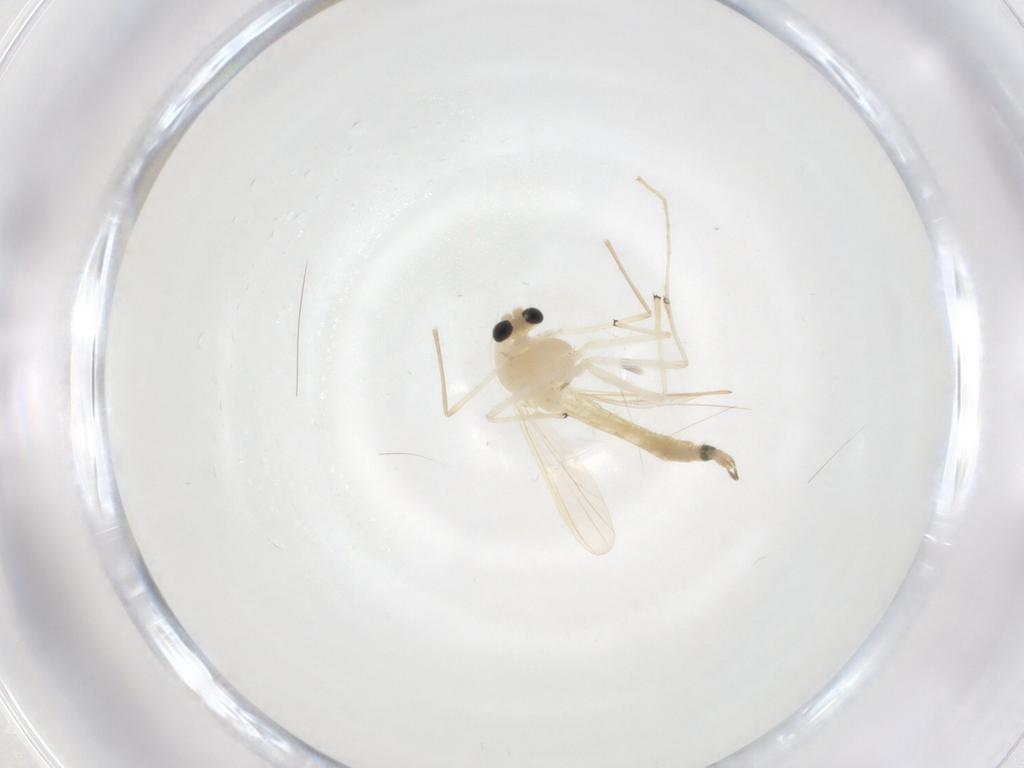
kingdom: Animalia
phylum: Arthropoda
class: Insecta
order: Diptera
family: Chironomidae
